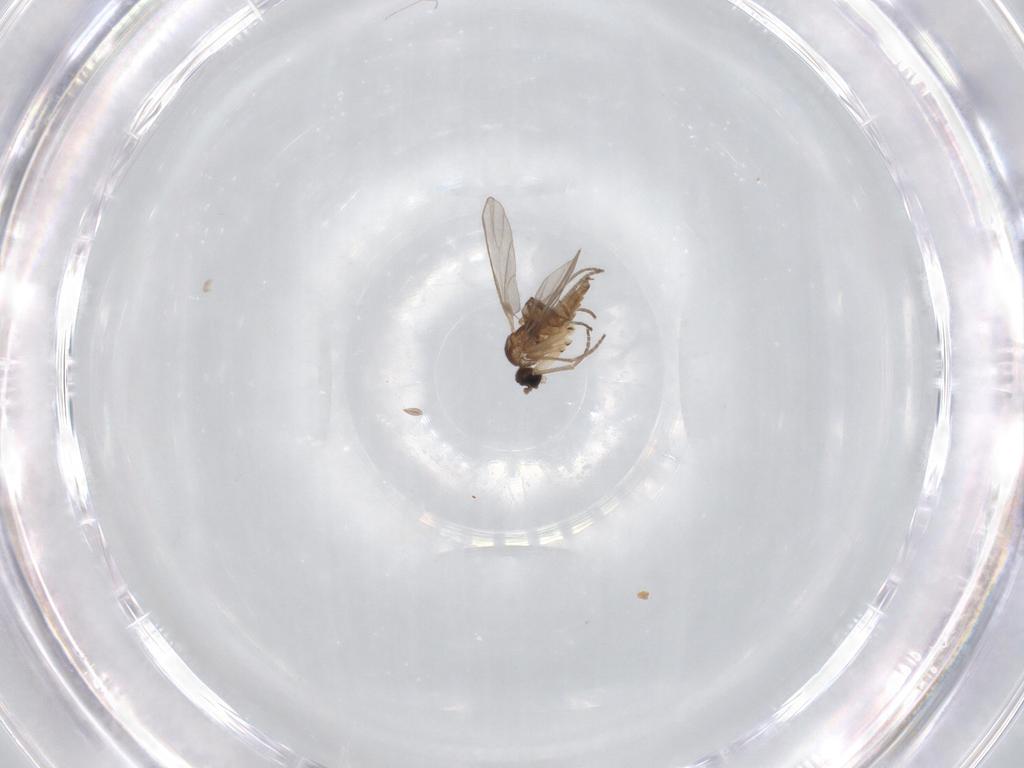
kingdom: Animalia
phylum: Arthropoda
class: Insecta
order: Diptera
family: Sciaridae
